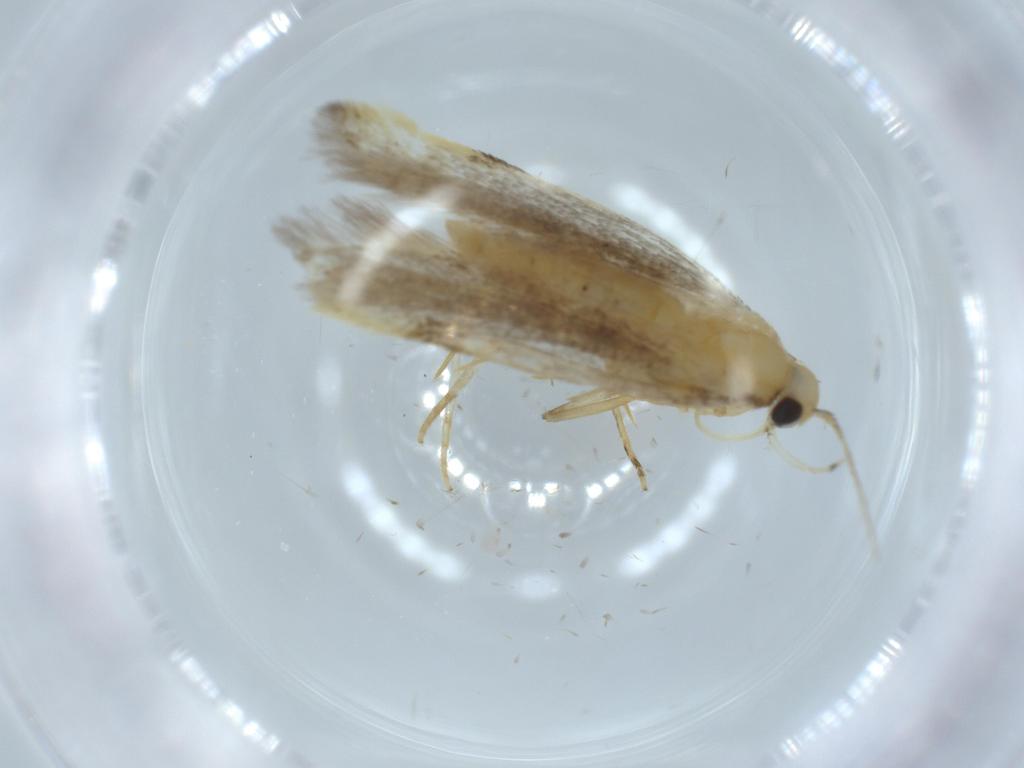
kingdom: Animalia
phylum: Arthropoda
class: Insecta
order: Lepidoptera
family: Autostichidae
